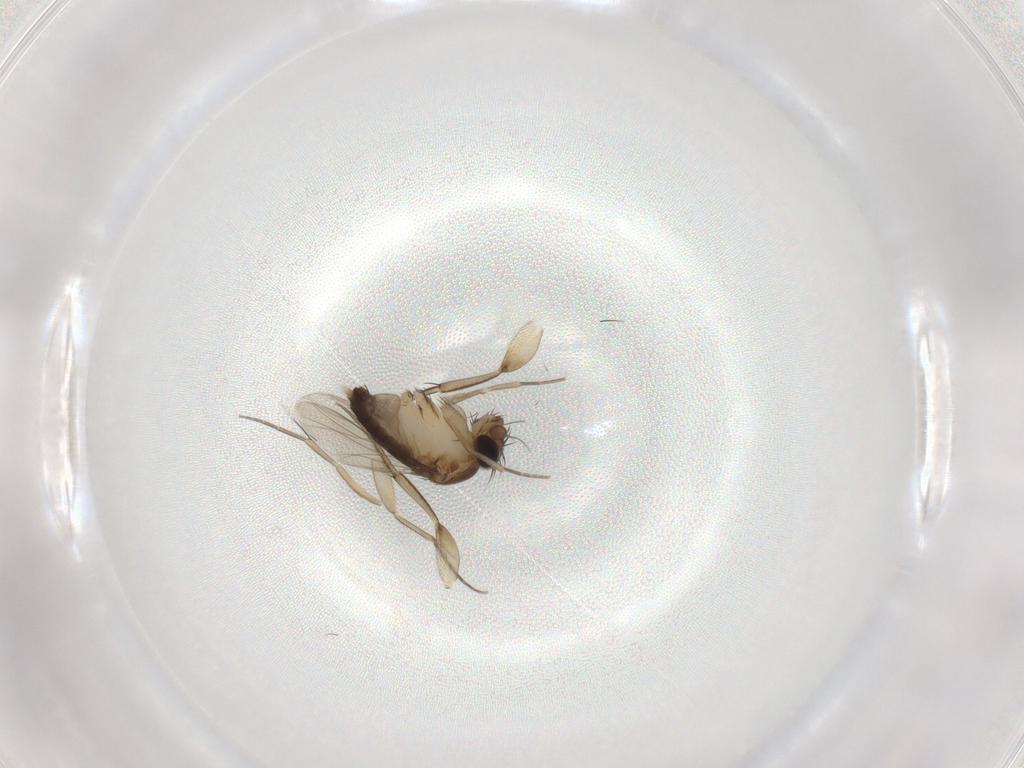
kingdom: Animalia
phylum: Arthropoda
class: Insecta
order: Diptera
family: Phoridae
